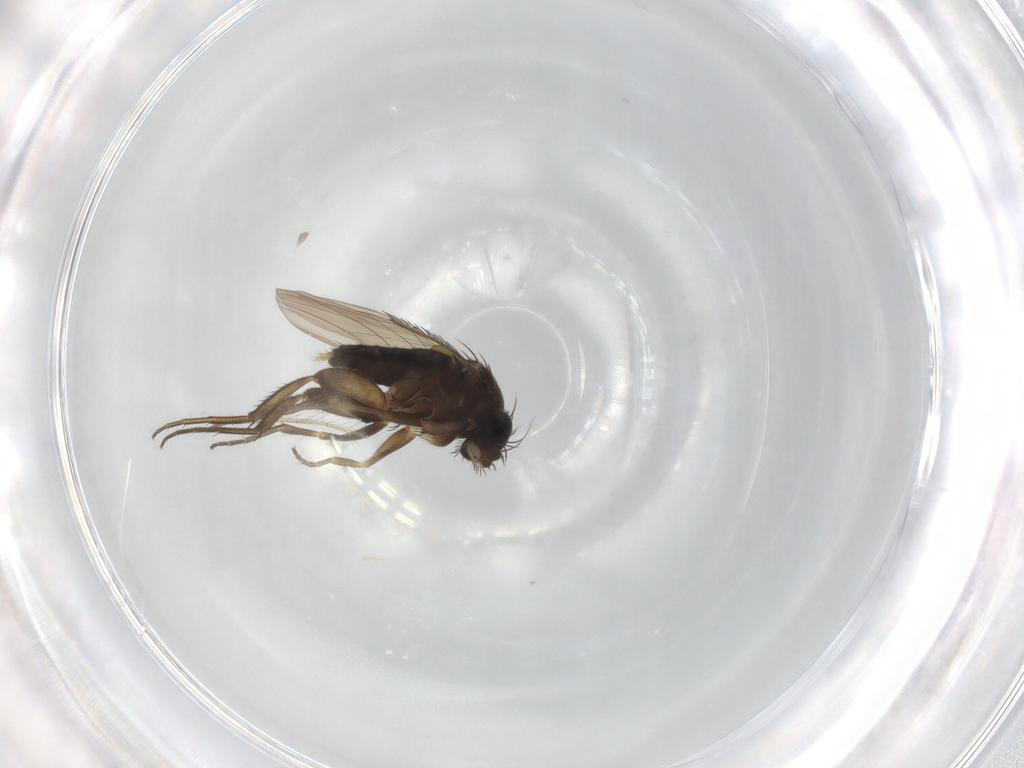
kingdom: Animalia
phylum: Arthropoda
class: Insecta
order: Diptera
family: Phoridae
